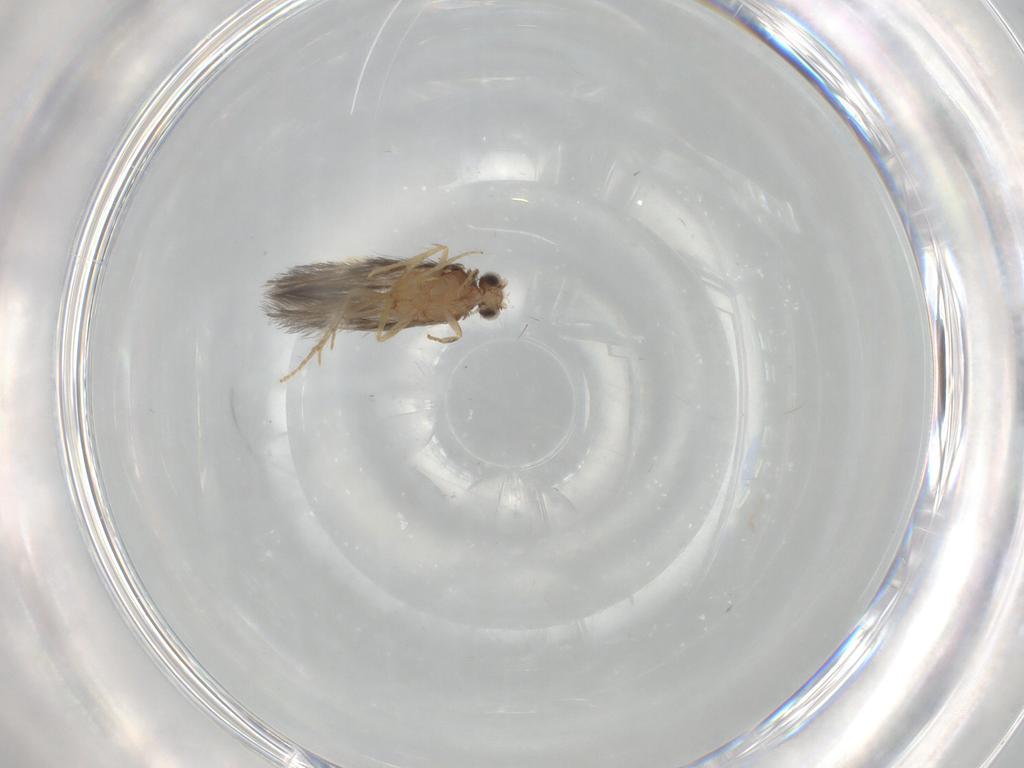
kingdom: Animalia
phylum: Arthropoda
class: Insecta
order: Trichoptera
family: Hydroptilidae
